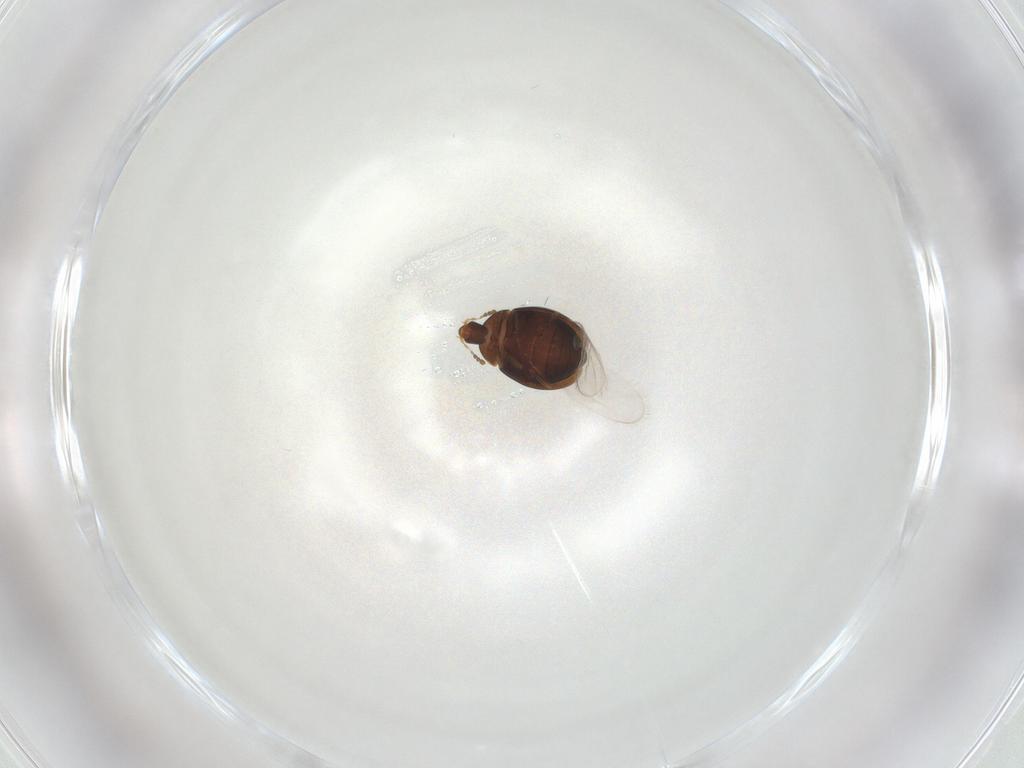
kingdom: Animalia
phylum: Arthropoda
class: Insecta
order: Coleoptera
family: Corylophidae
